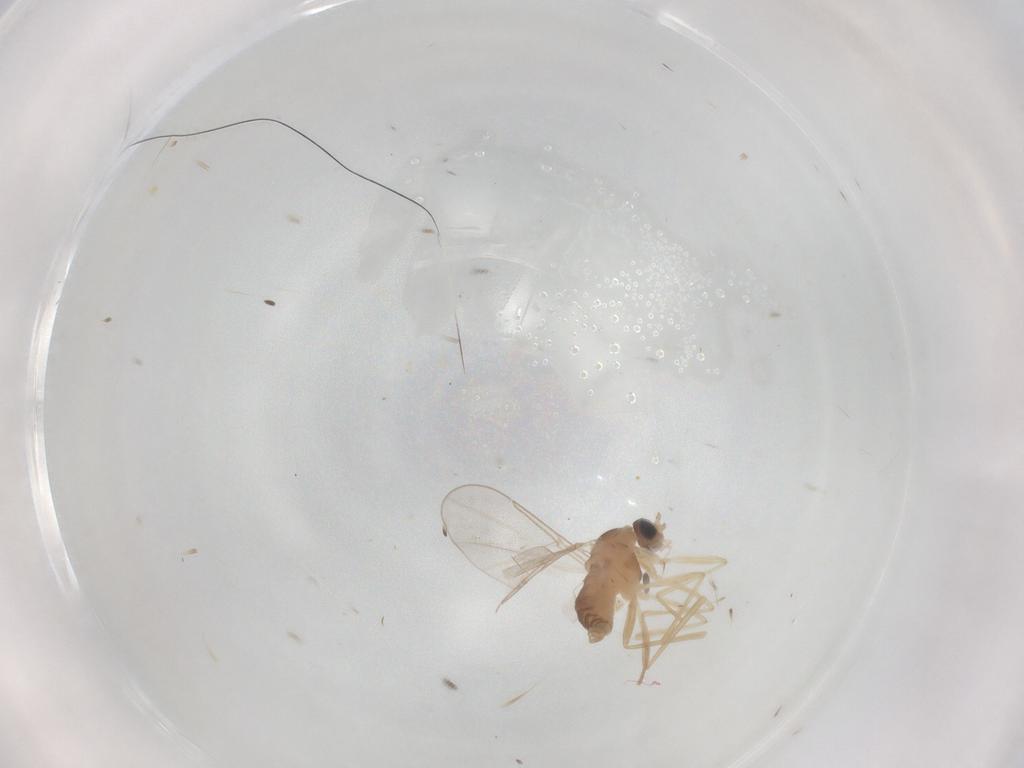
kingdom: Animalia
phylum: Arthropoda
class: Insecta
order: Diptera
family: Cecidomyiidae
